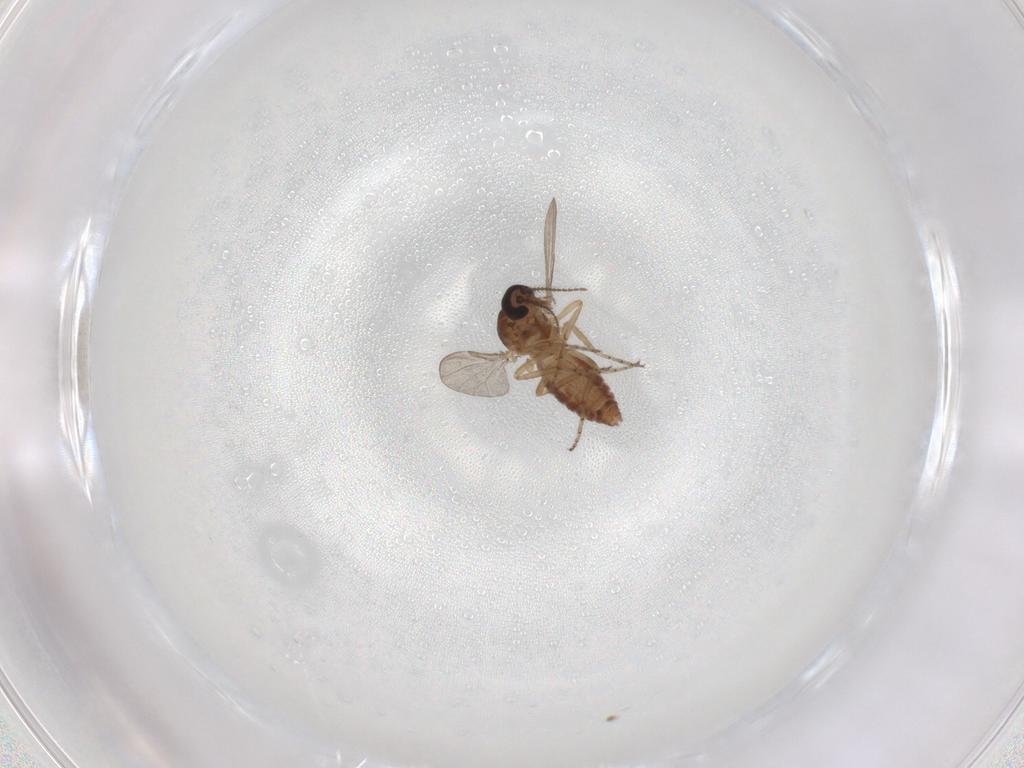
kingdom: Animalia
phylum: Arthropoda
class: Insecta
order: Diptera
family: Ceratopogonidae
